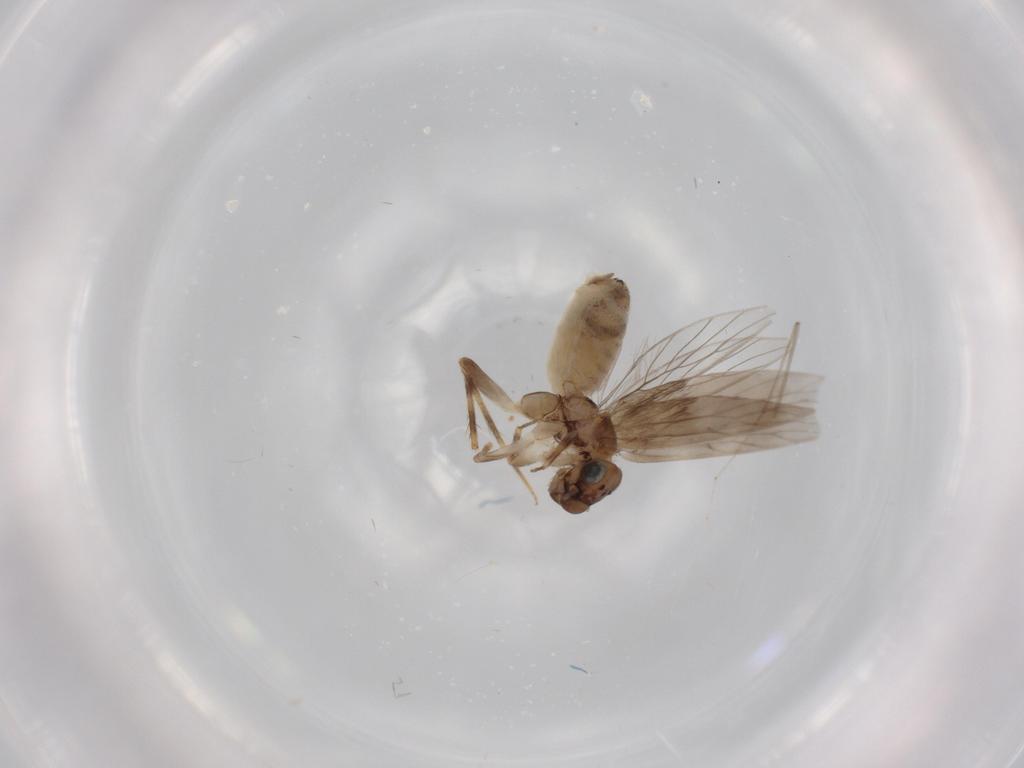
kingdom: Animalia
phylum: Arthropoda
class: Insecta
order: Psocodea
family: Lepidopsocidae
